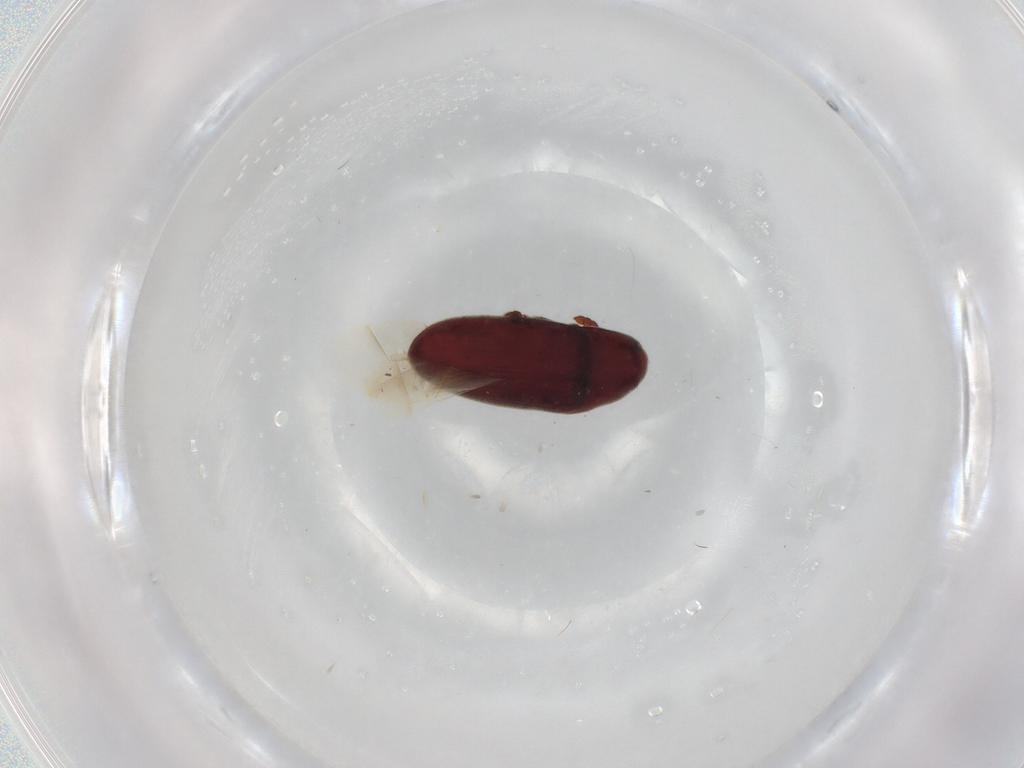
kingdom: Animalia
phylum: Arthropoda
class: Insecta
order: Coleoptera
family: Throscidae
